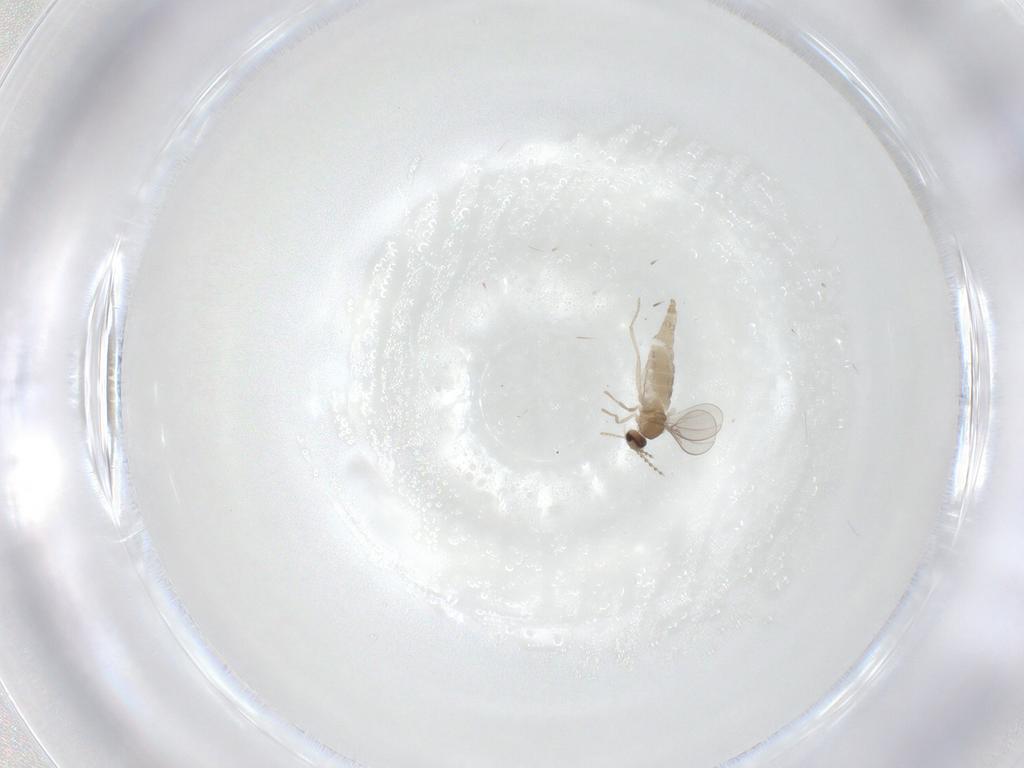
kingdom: Animalia
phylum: Arthropoda
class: Insecta
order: Diptera
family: Cecidomyiidae
